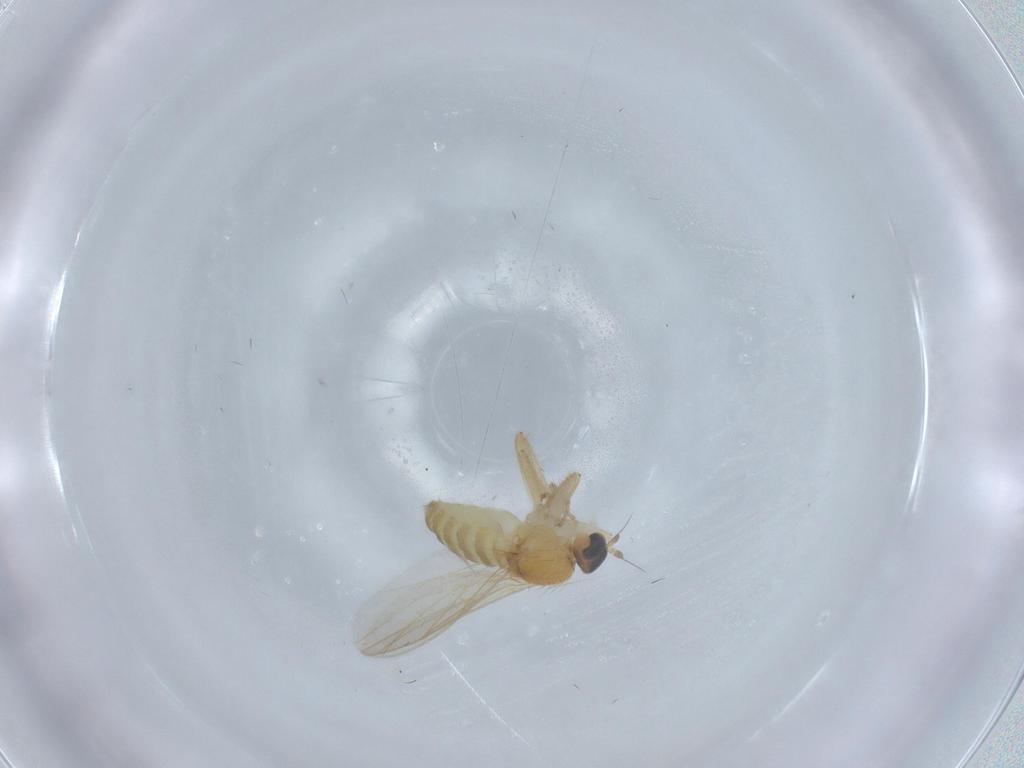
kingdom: Animalia
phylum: Arthropoda
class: Insecta
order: Diptera
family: Hybotidae
